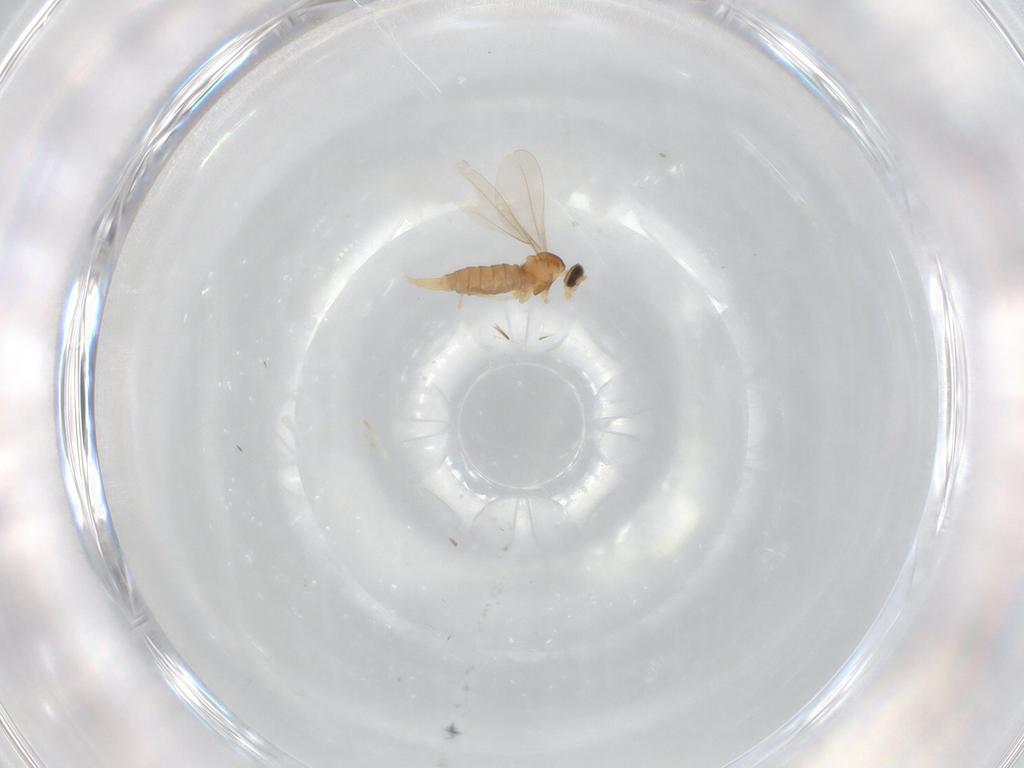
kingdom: Animalia
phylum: Arthropoda
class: Insecta
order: Diptera
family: Cecidomyiidae
